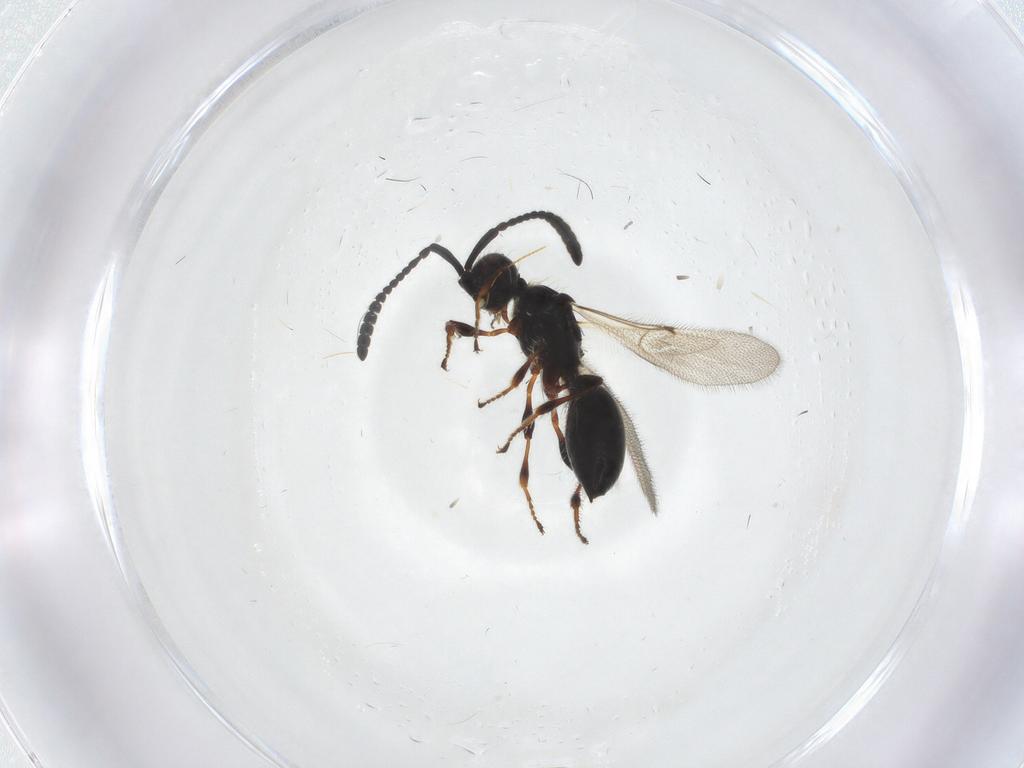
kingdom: Animalia
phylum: Arthropoda
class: Insecta
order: Hymenoptera
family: Diapriidae
